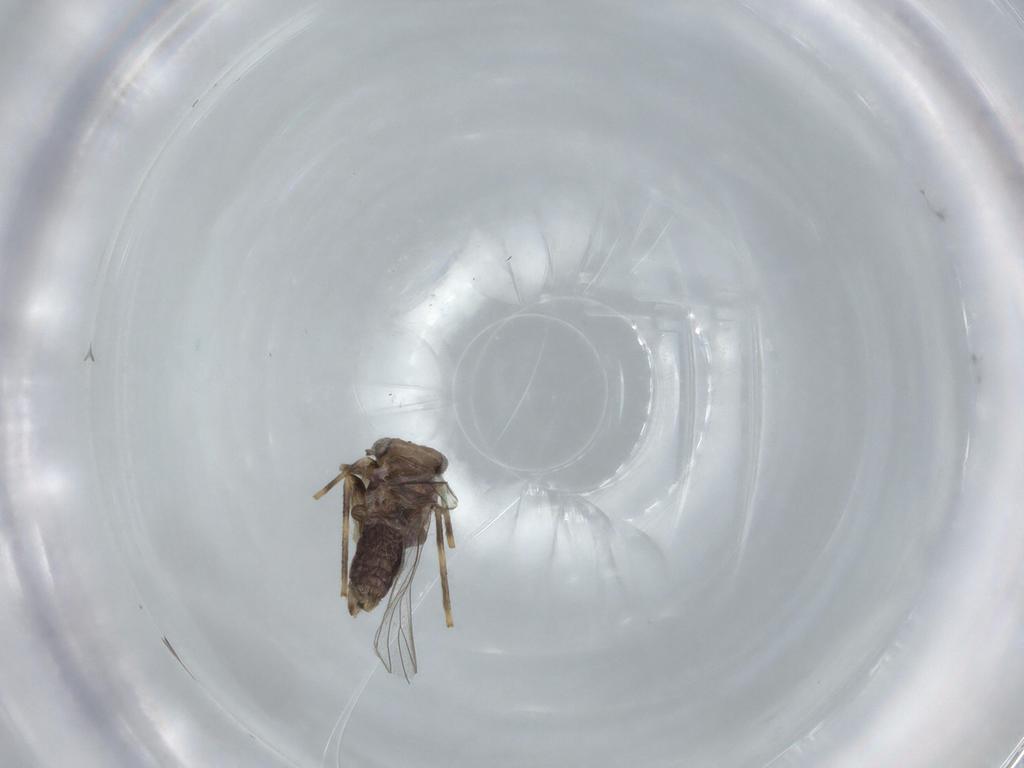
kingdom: Animalia
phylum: Arthropoda
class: Insecta
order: Psocodea
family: Lepidopsocidae
